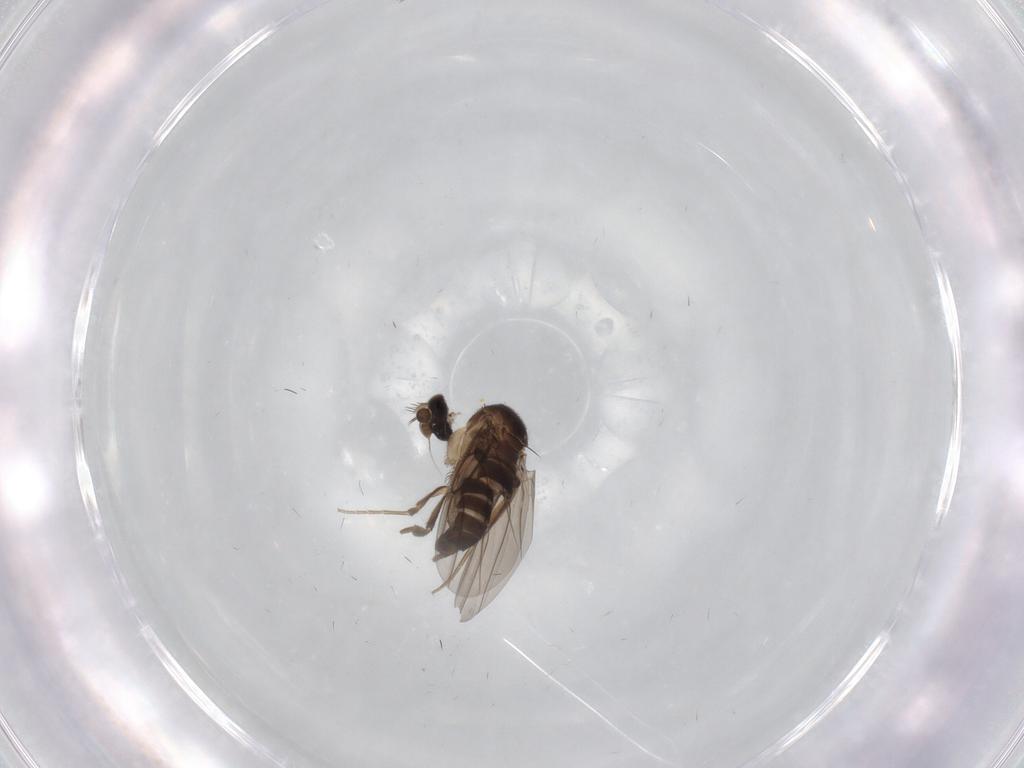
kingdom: Animalia
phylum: Arthropoda
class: Insecta
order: Diptera
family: Phoridae
